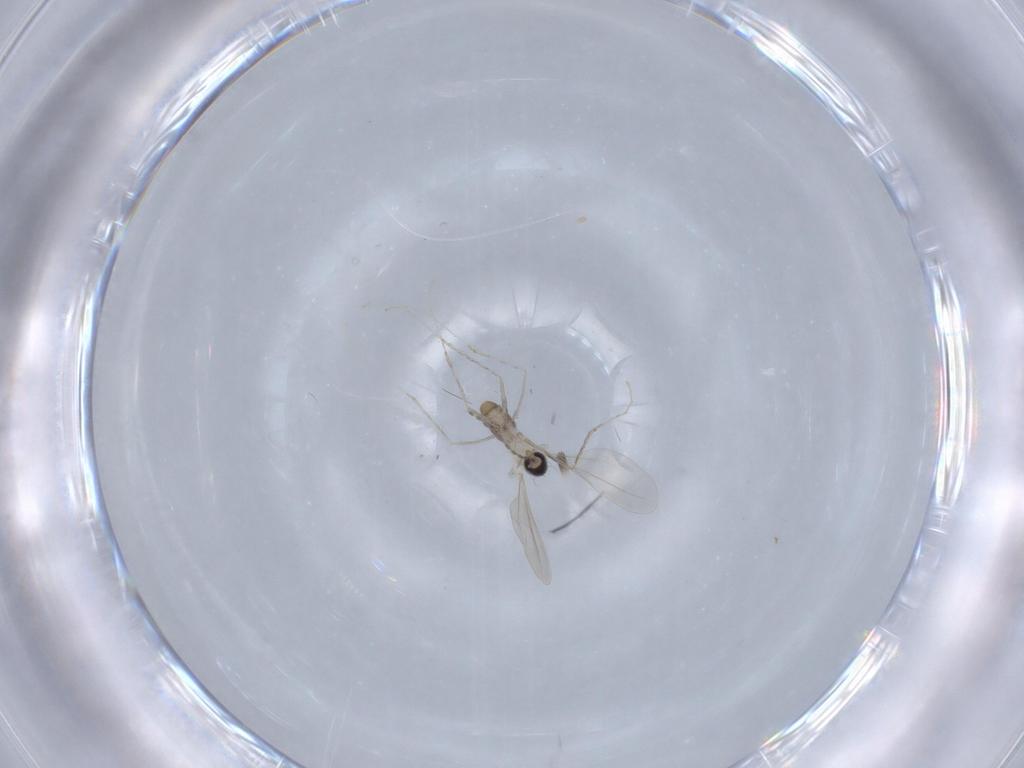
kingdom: Animalia
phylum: Arthropoda
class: Insecta
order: Diptera
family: Cecidomyiidae
